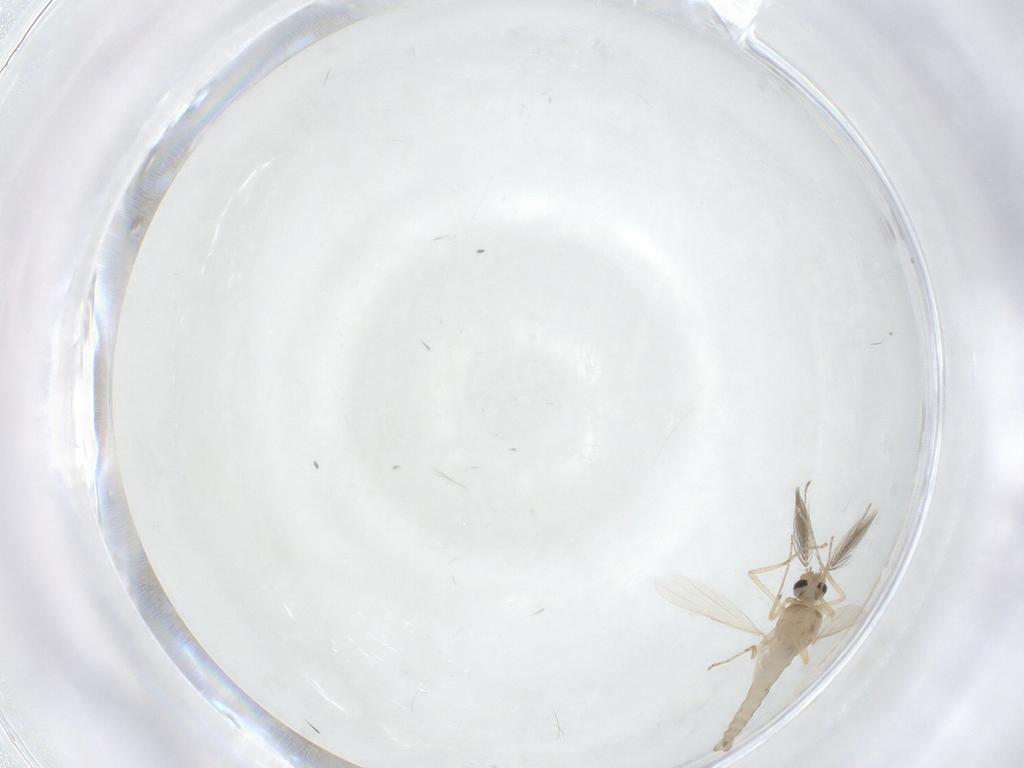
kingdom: Animalia
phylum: Arthropoda
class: Insecta
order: Diptera
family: Ceratopogonidae
